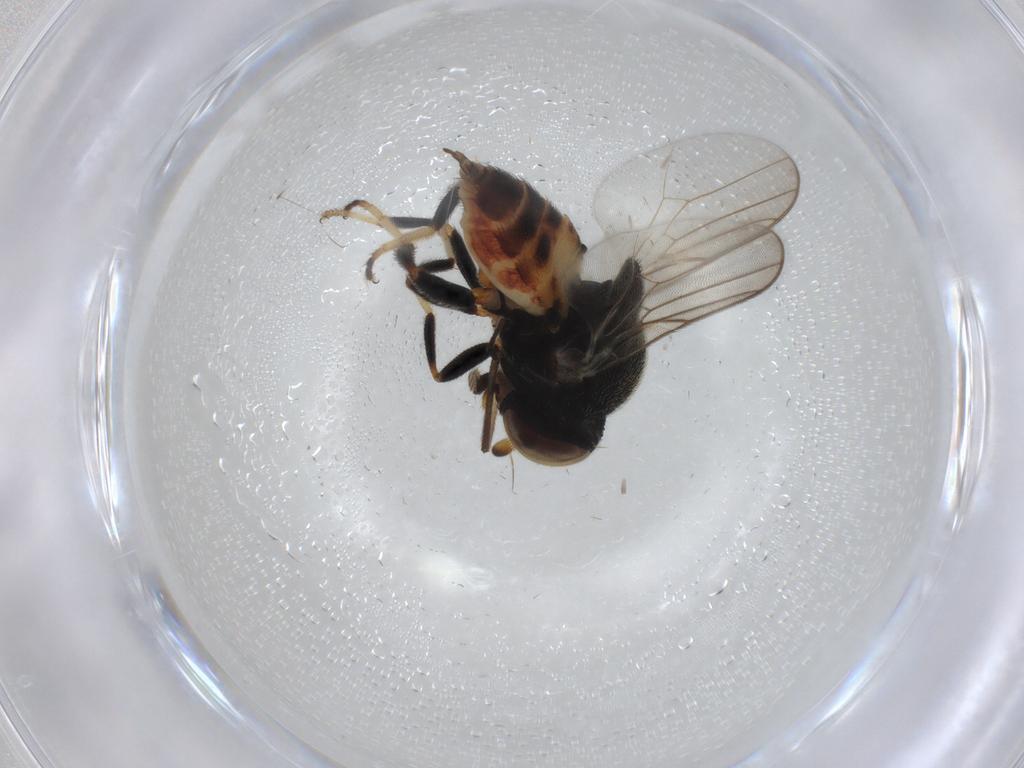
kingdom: Animalia
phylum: Arthropoda
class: Insecta
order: Diptera
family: Chloropidae
